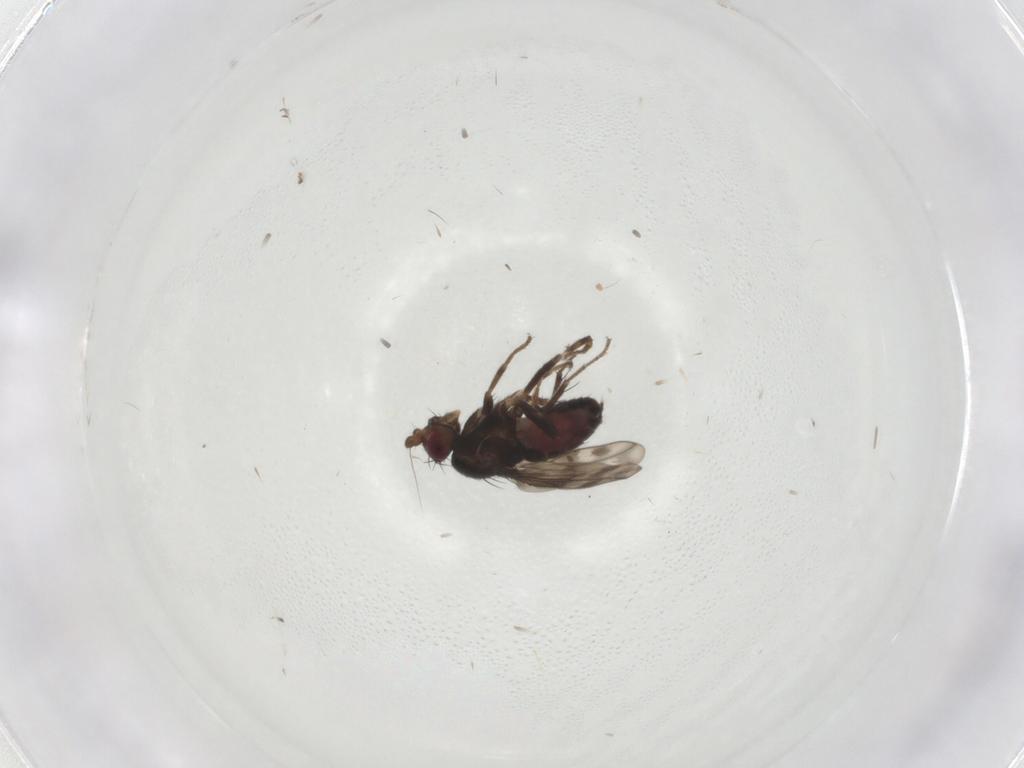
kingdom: Animalia
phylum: Arthropoda
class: Insecta
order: Diptera
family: Sphaeroceridae
